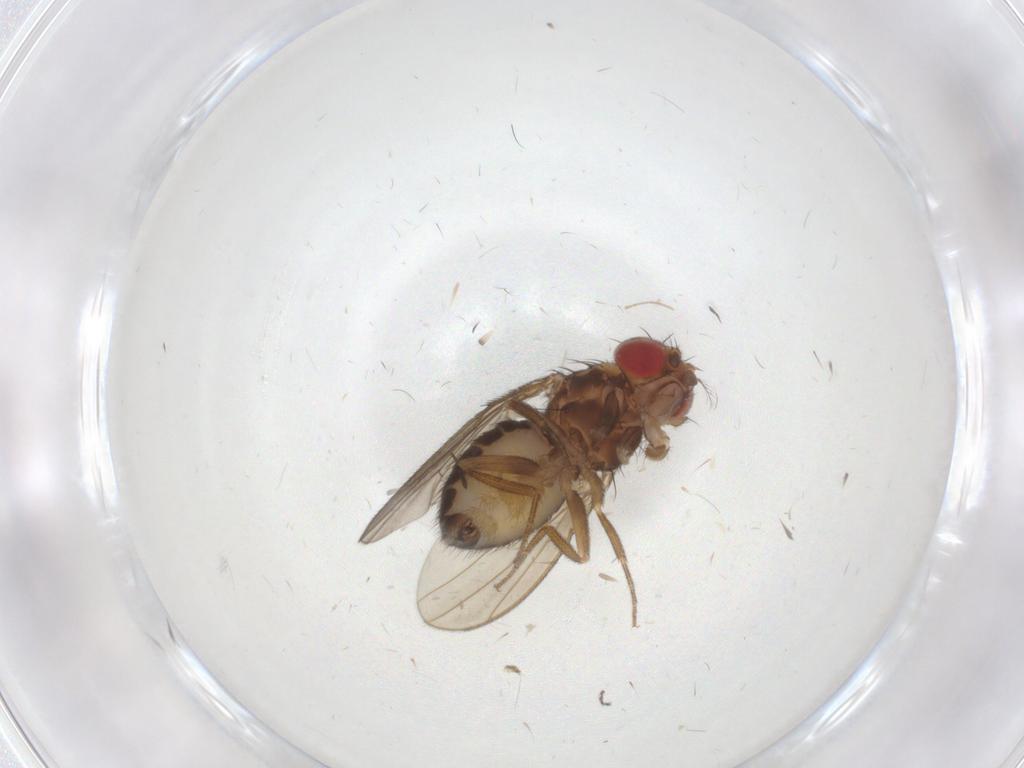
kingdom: Animalia
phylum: Arthropoda
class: Insecta
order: Diptera
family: Drosophilidae
